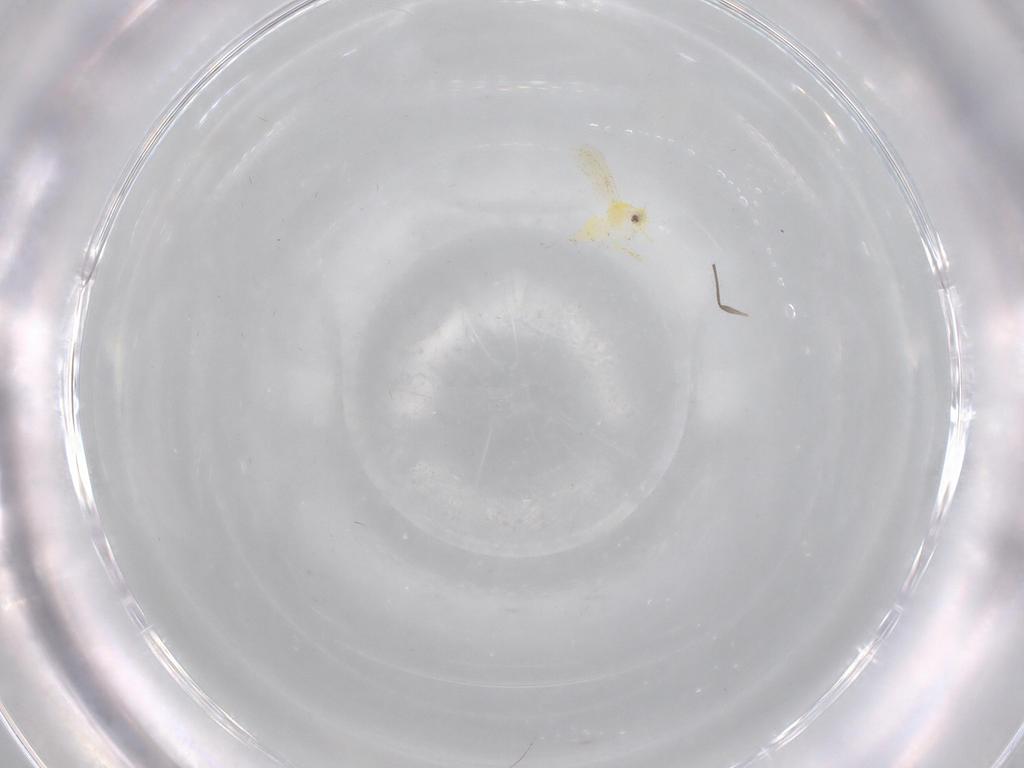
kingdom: Animalia
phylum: Arthropoda
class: Insecta
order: Hemiptera
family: Aleyrodidae
